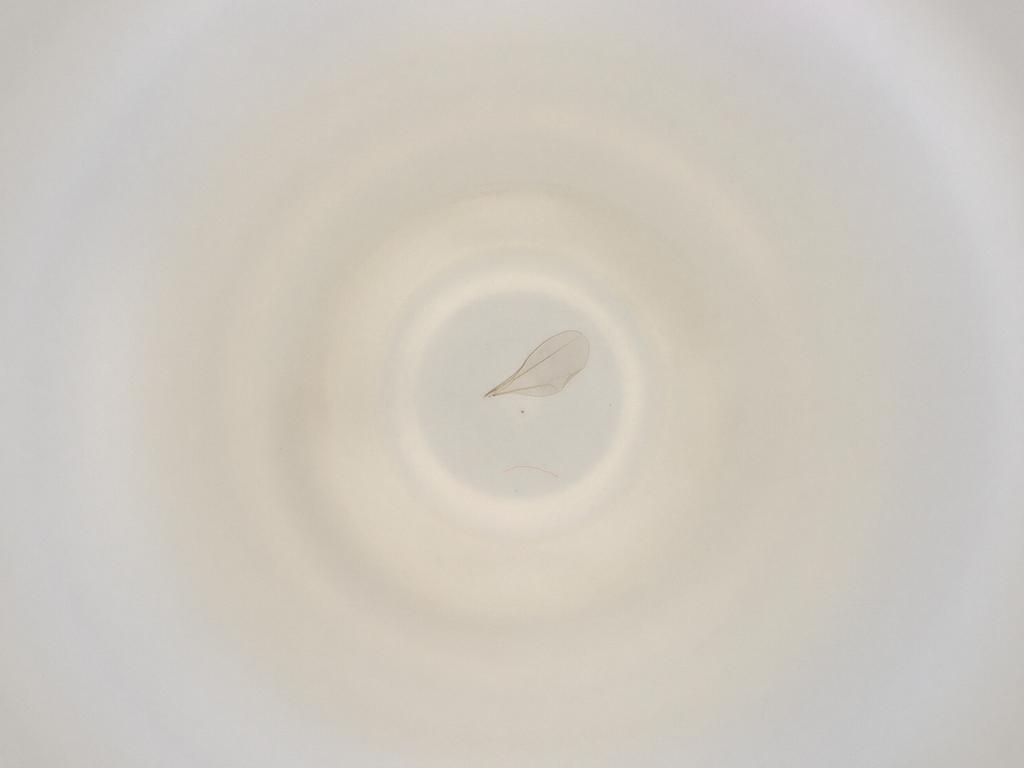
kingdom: Animalia
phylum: Arthropoda
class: Insecta
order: Diptera
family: Cecidomyiidae
